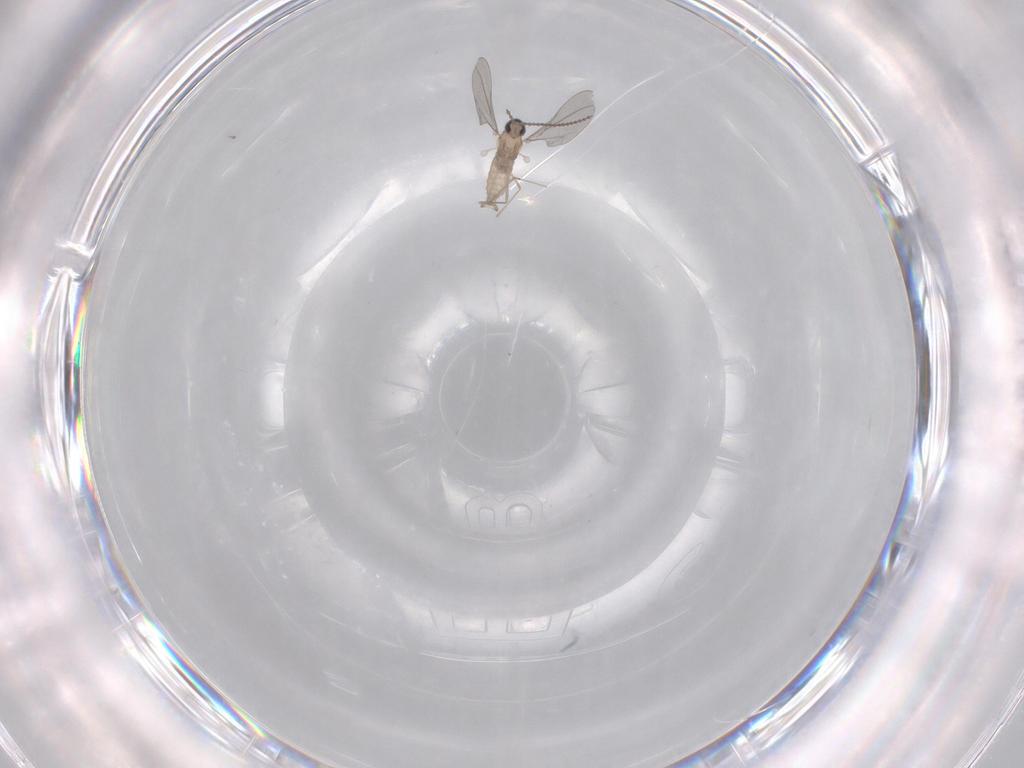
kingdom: Animalia
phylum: Arthropoda
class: Insecta
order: Diptera
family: Cecidomyiidae
